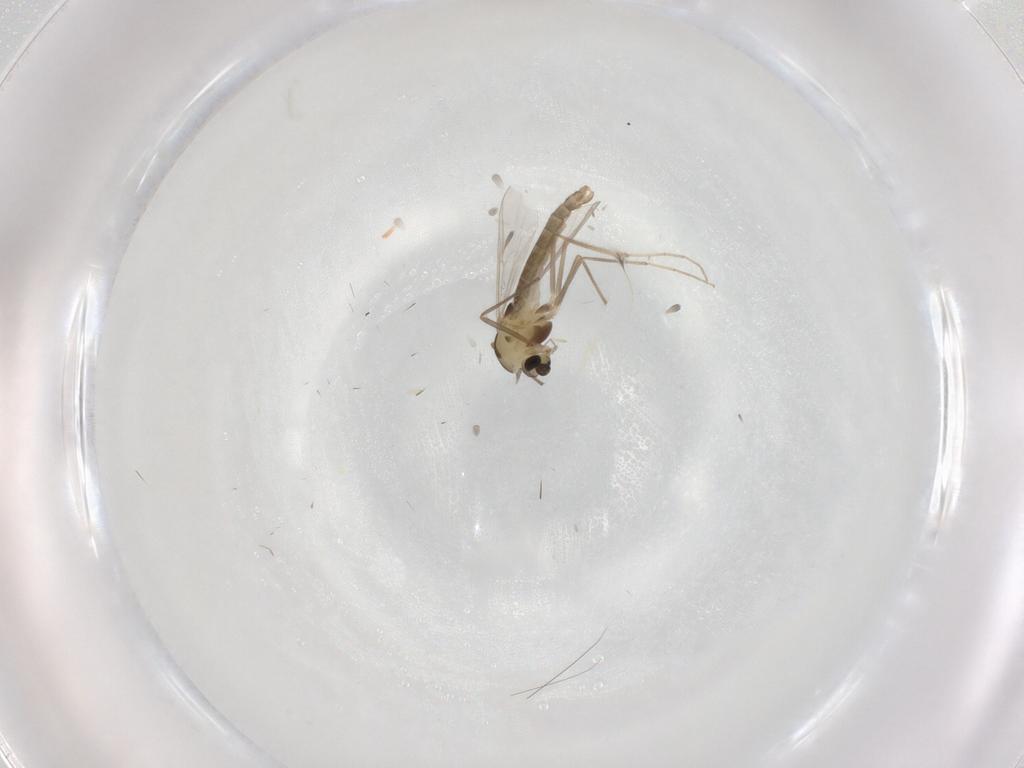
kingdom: Animalia
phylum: Arthropoda
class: Insecta
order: Diptera
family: Chironomidae
